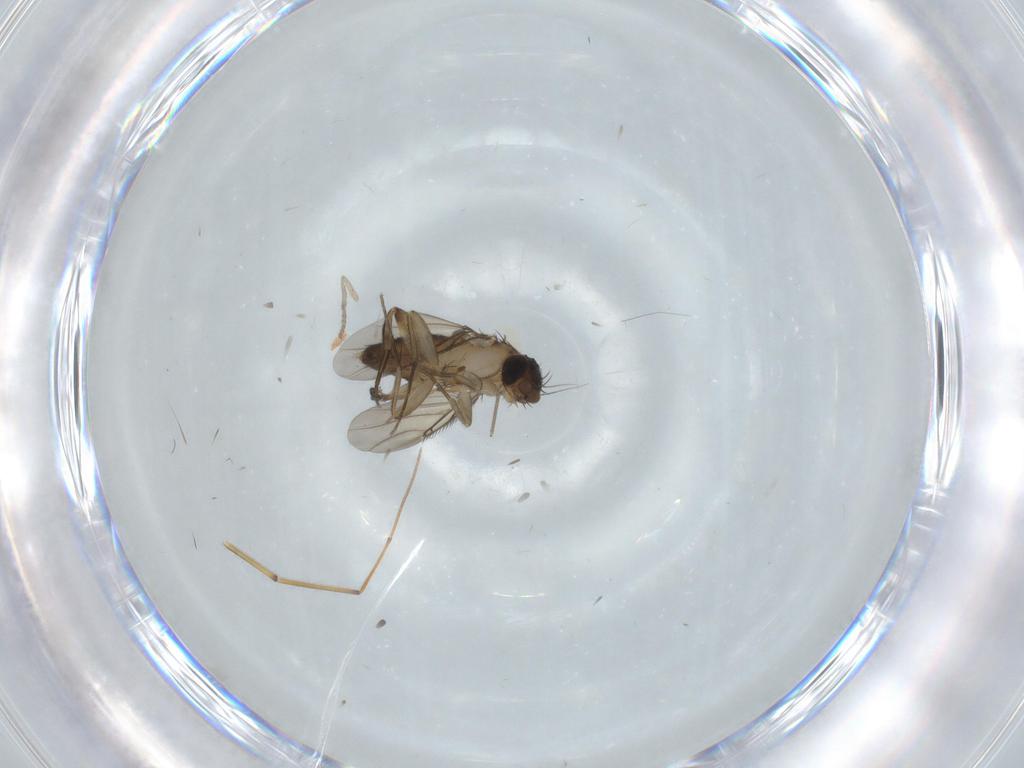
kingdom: Animalia
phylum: Arthropoda
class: Insecta
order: Diptera
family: Phoridae
